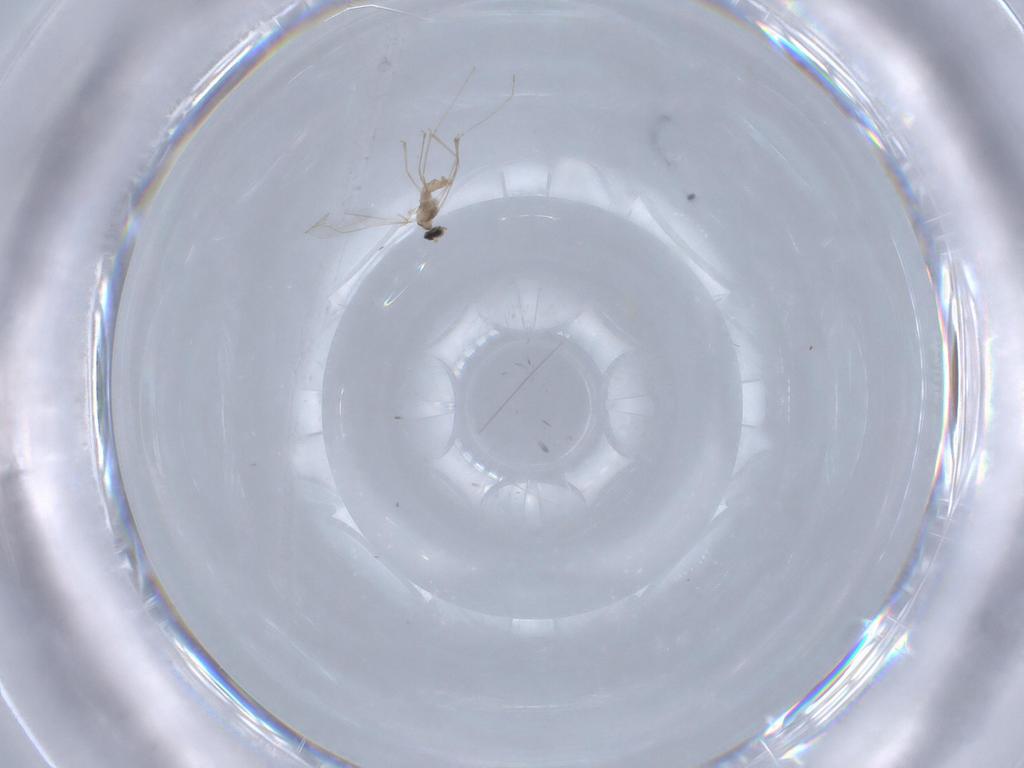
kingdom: Animalia
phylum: Arthropoda
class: Insecta
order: Diptera
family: Cecidomyiidae
